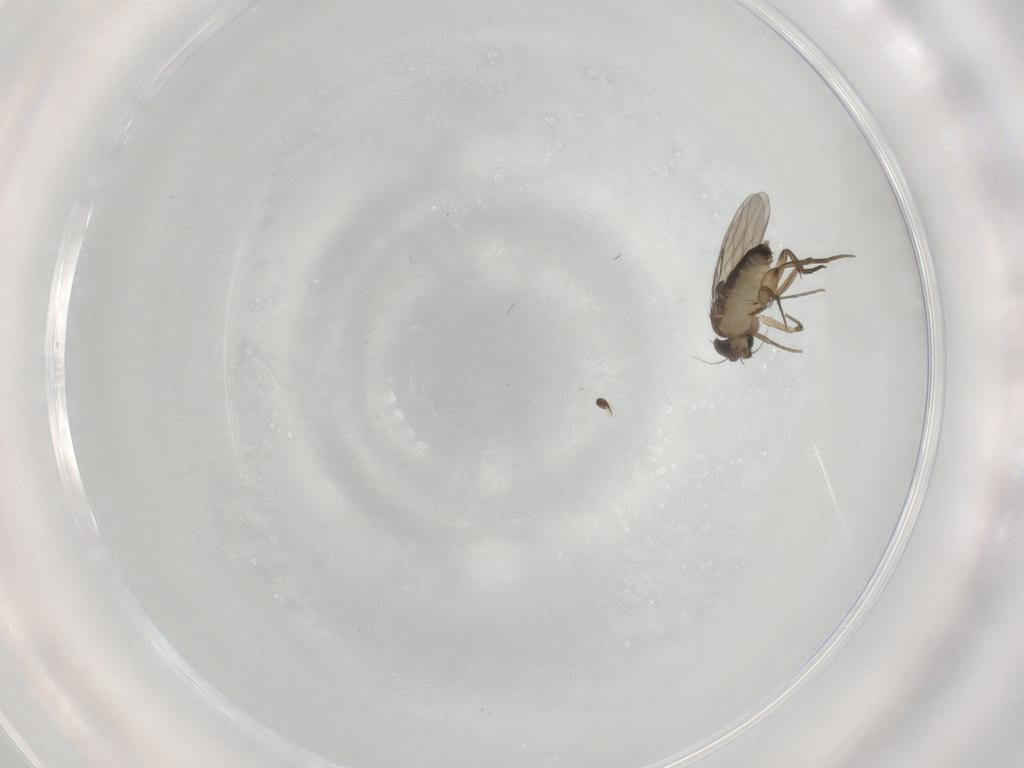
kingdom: Animalia
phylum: Arthropoda
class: Insecta
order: Diptera
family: Phoridae
